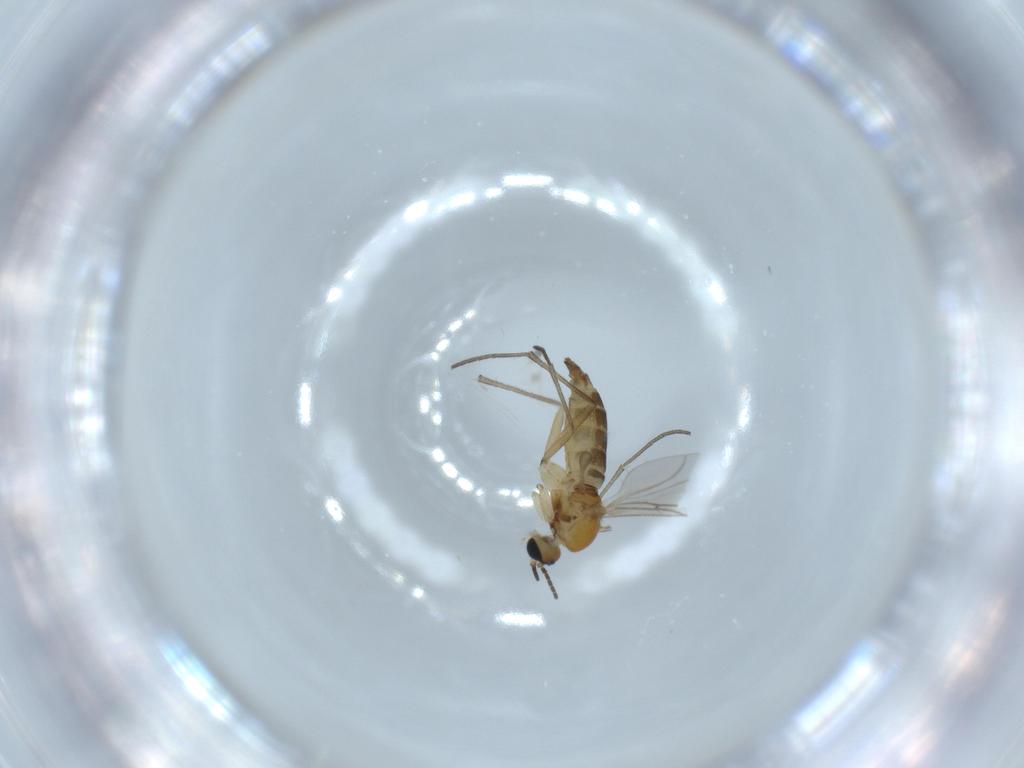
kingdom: Animalia
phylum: Arthropoda
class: Insecta
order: Diptera
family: Sciaridae
